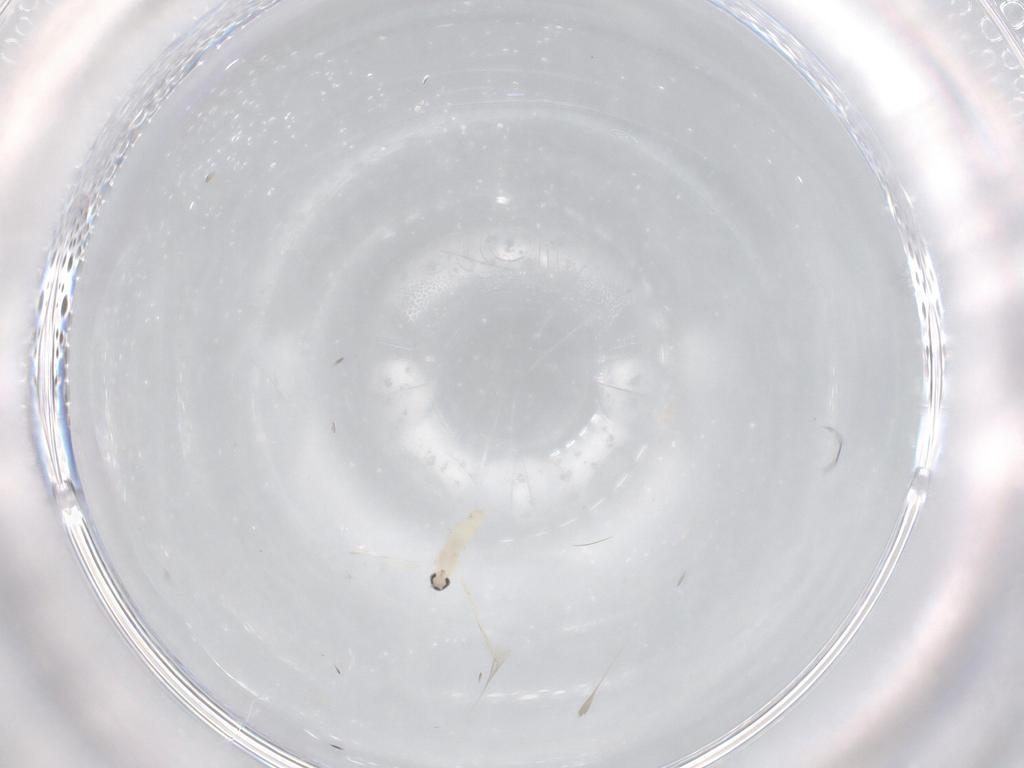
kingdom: Animalia
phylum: Arthropoda
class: Insecta
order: Diptera
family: Cecidomyiidae
